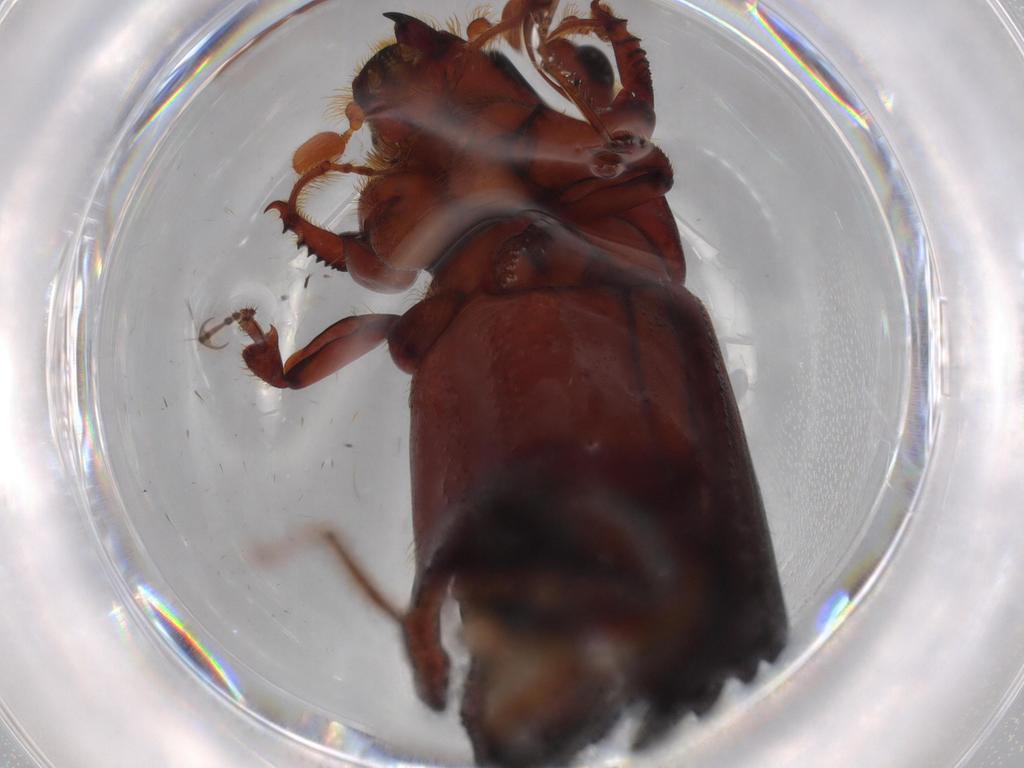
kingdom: Animalia
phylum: Arthropoda
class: Insecta
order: Coleoptera
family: Curculionidae
